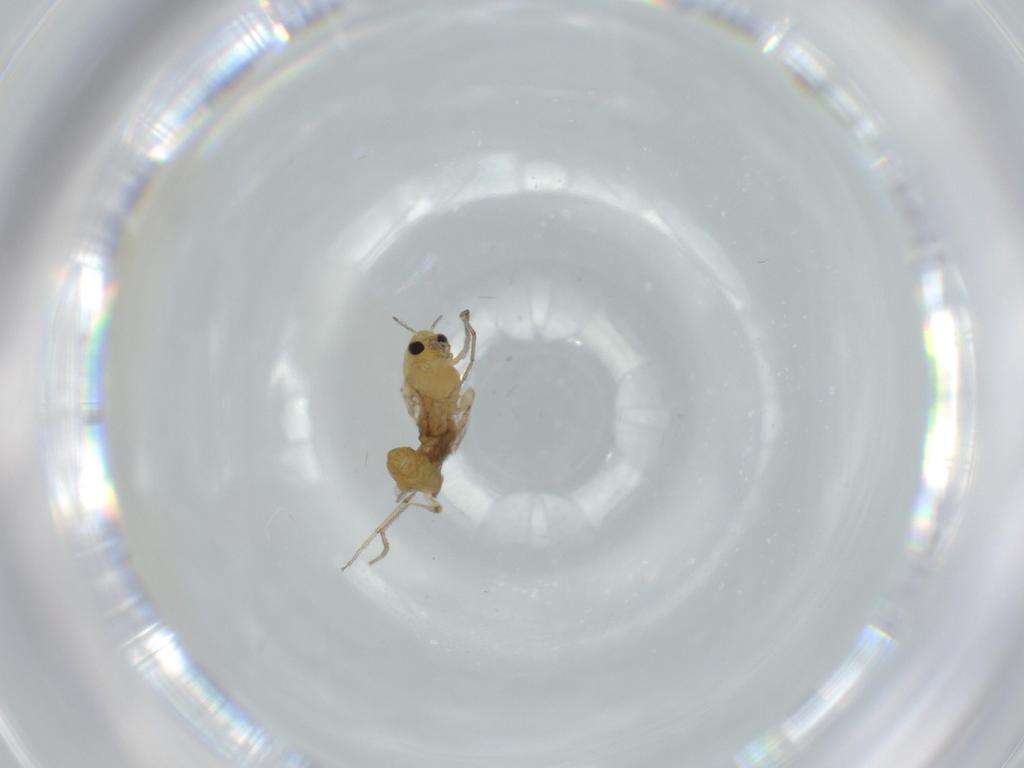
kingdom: Animalia
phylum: Arthropoda
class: Insecta
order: Diptera
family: Chironomidae
